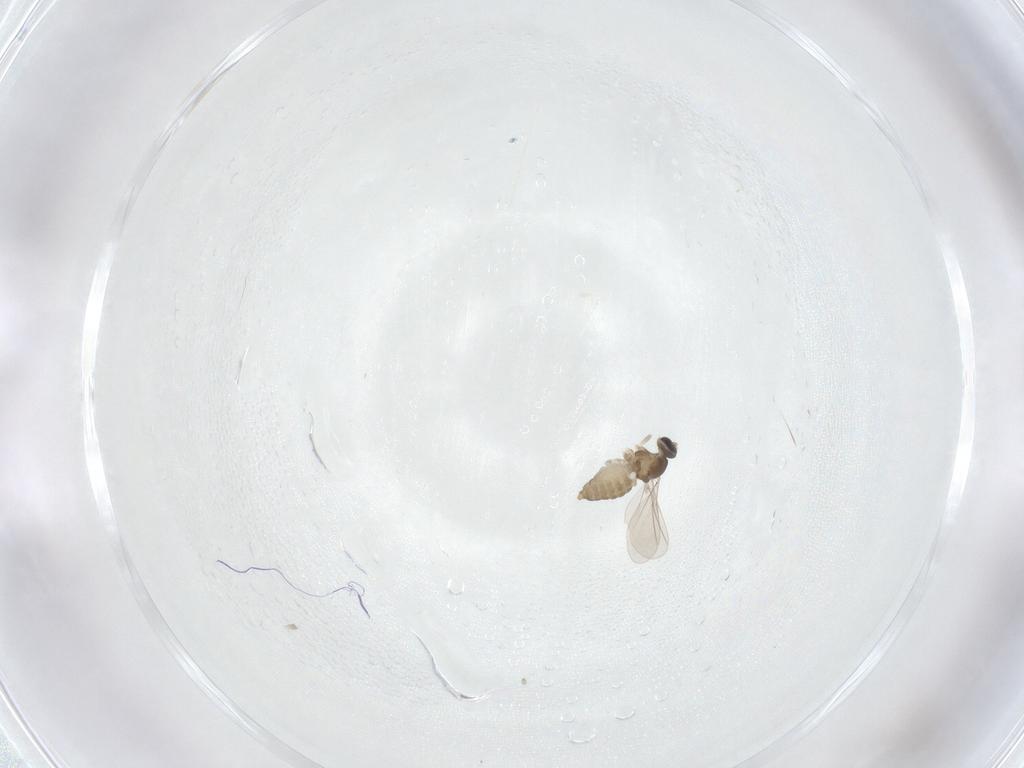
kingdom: Animalia
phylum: Arthropoda
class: Insecta
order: Diptera
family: Cecidomyiidae
